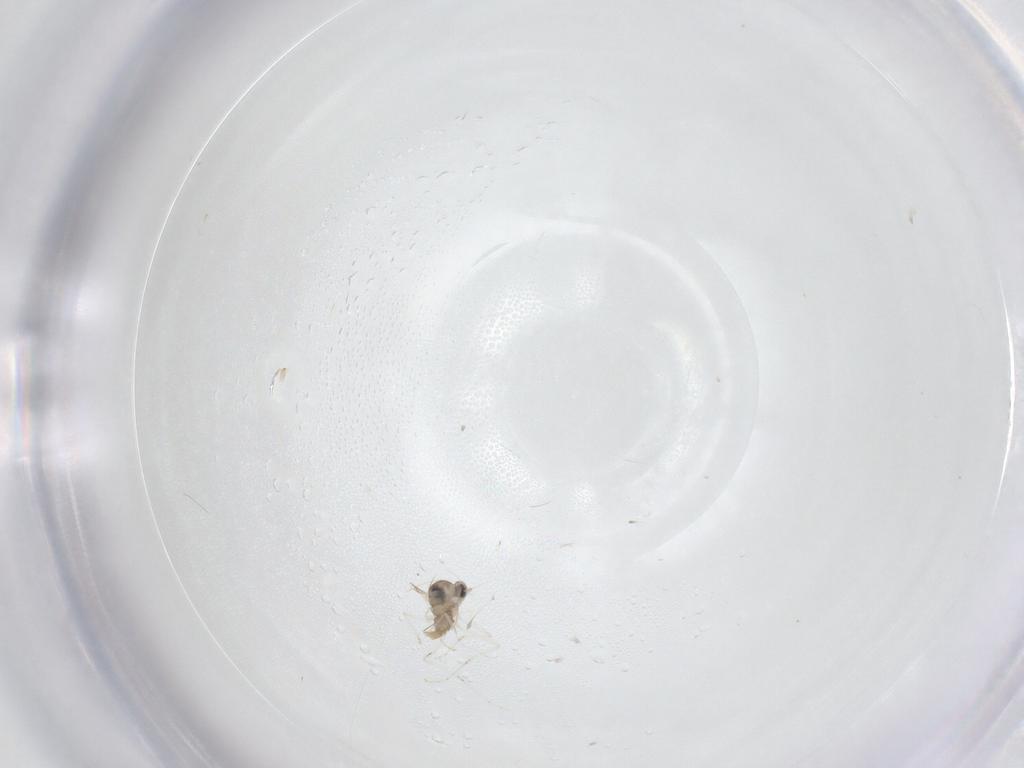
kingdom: Animalia
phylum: Arthropoda
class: Insecta
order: Diptera
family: Cecidomyiidae
